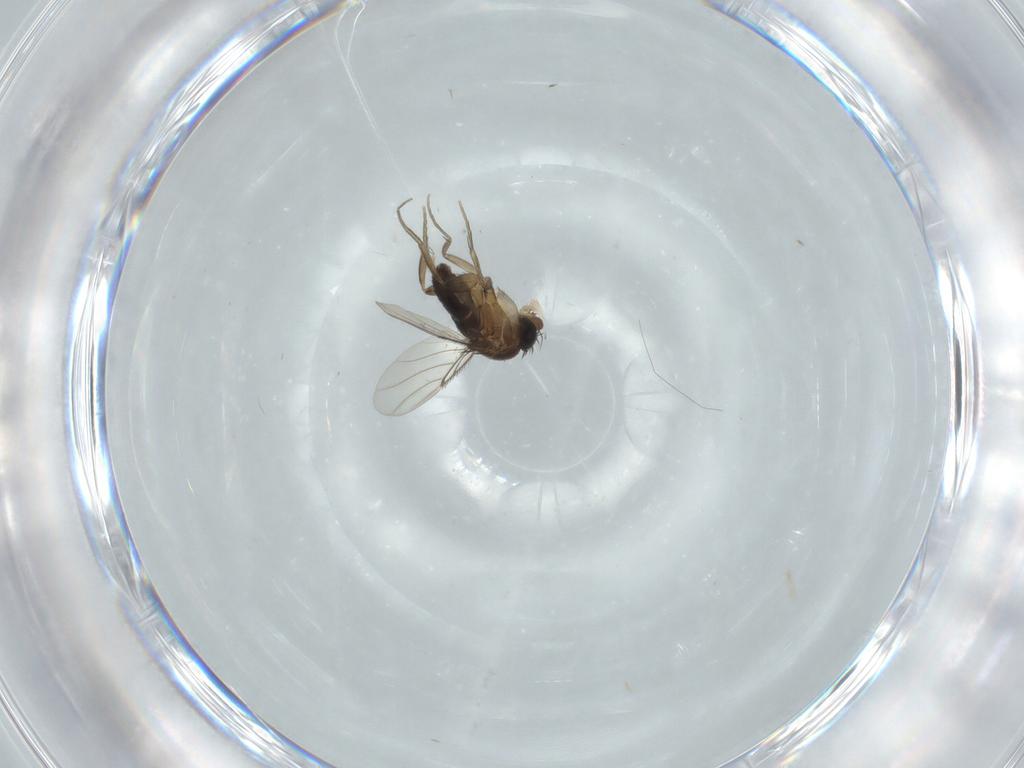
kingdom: Animalia
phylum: Arthropoda
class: Insecta
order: Diptera
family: Phoridae
